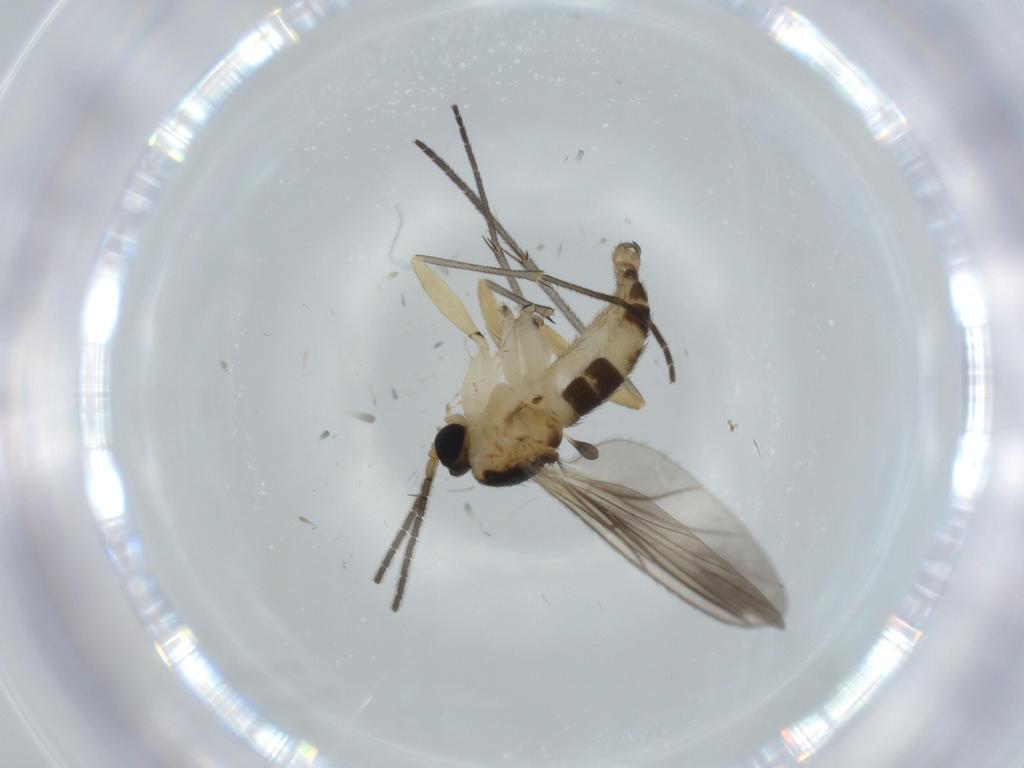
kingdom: Animalia
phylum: Arthropoda
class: Insecta
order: Diptera
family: Sciaridae
